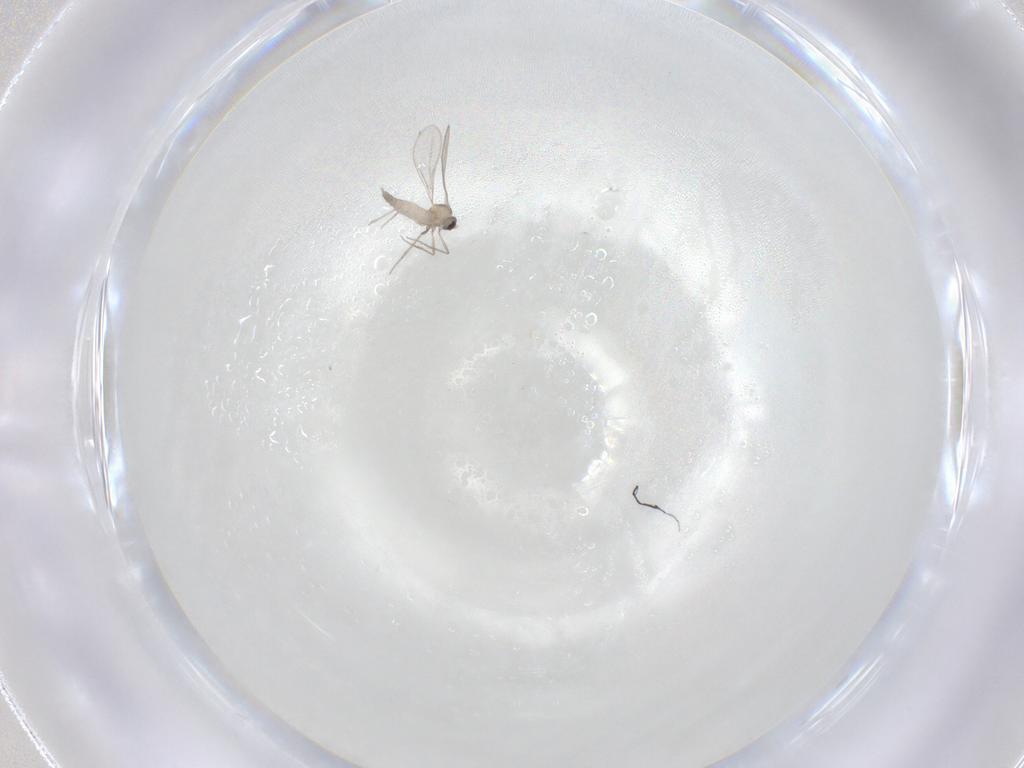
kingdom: Animalia
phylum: Arthropoda
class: Insecta
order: Diptera
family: Cecidomyiidae
